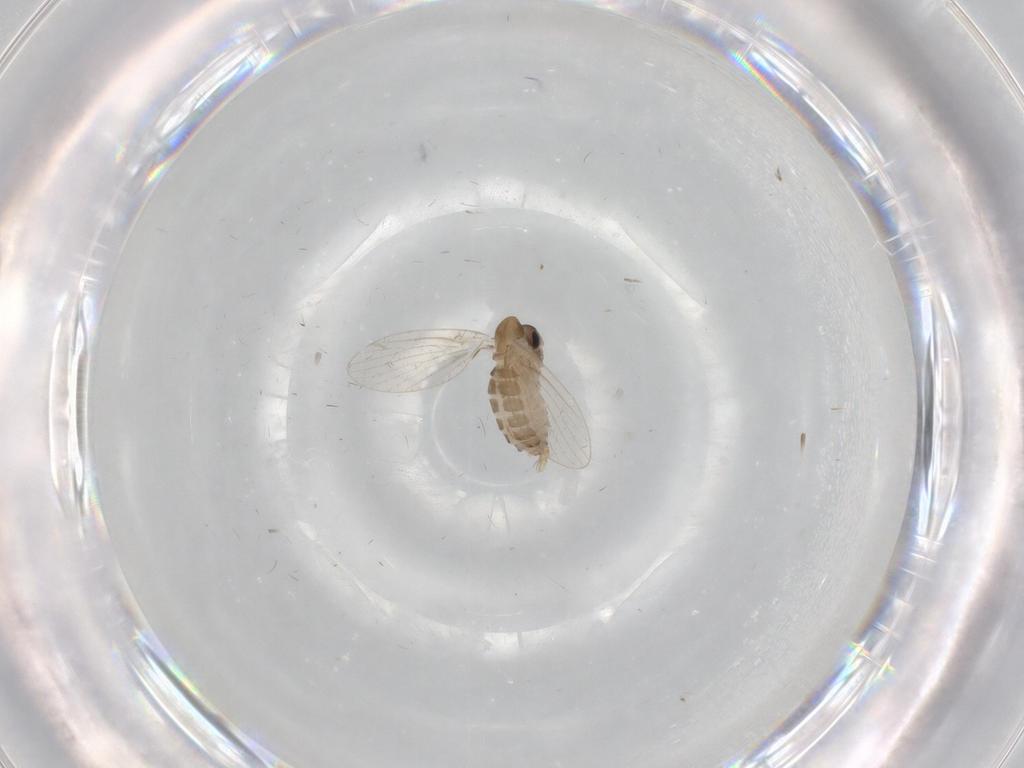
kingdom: Animalia
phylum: Arthropoda
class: Insecta
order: Diptera
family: Psychodidae
